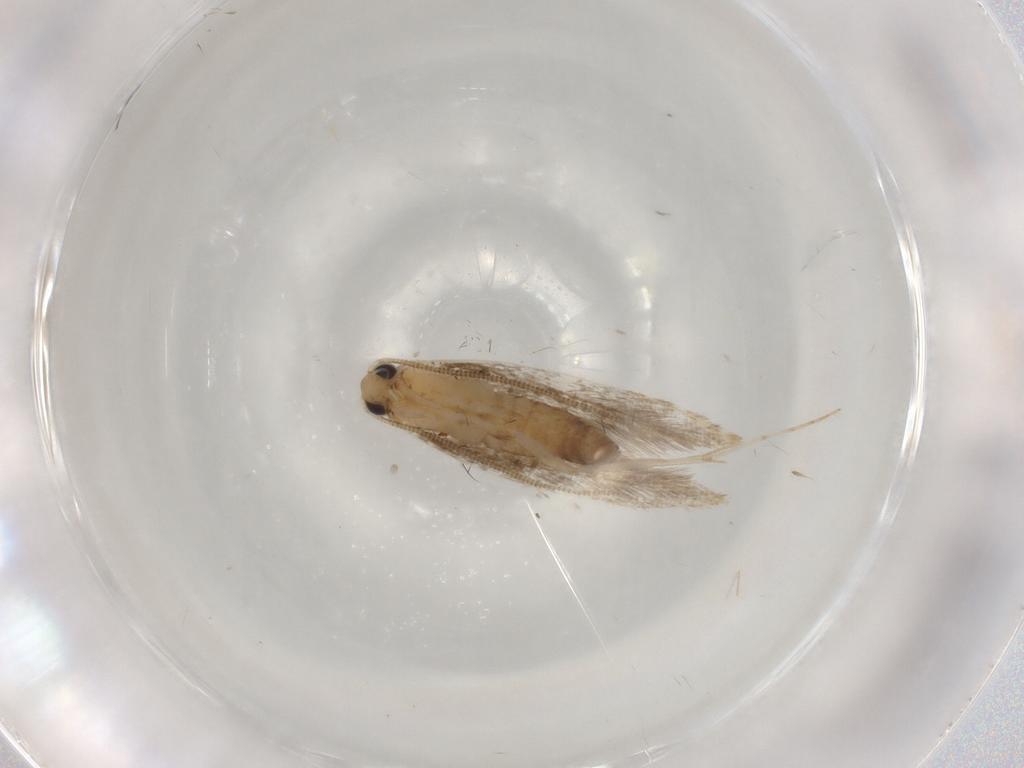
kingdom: Animalia
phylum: Arthropoda
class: Insecta
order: Lepidoptera
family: Tineidae
